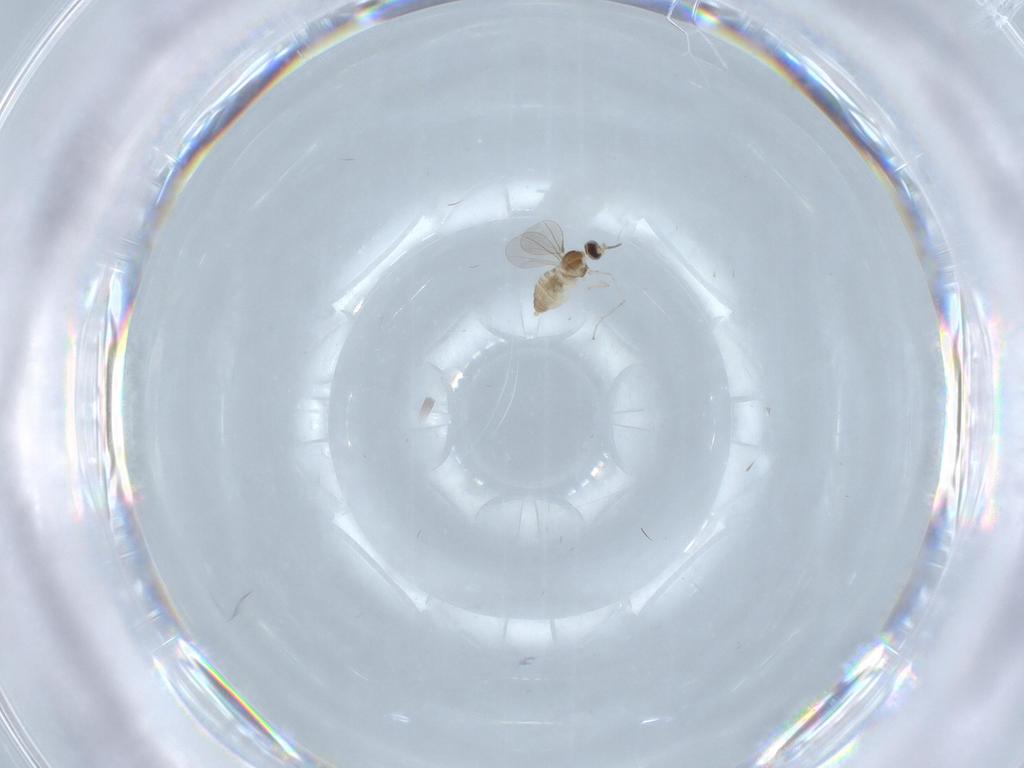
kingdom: Animalia
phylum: Arthropoda
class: Insecta
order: Diptera
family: Cecidomyiidae
